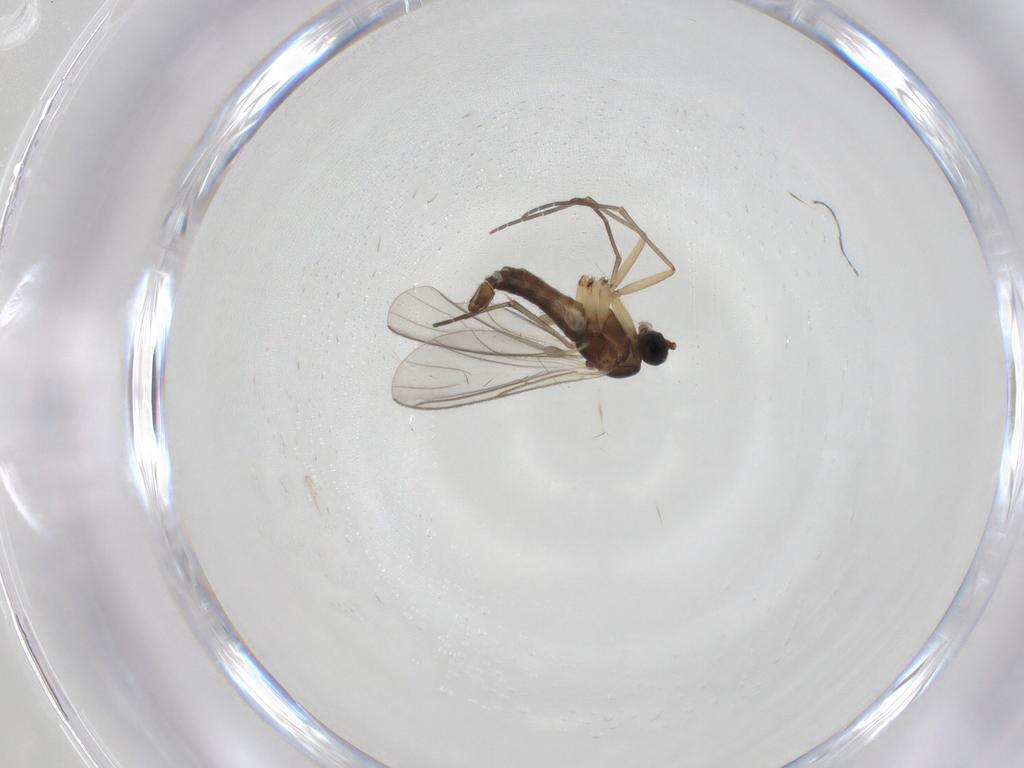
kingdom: Animalia
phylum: Arthropoda
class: Insecta
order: Diptera
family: Sciaridae
